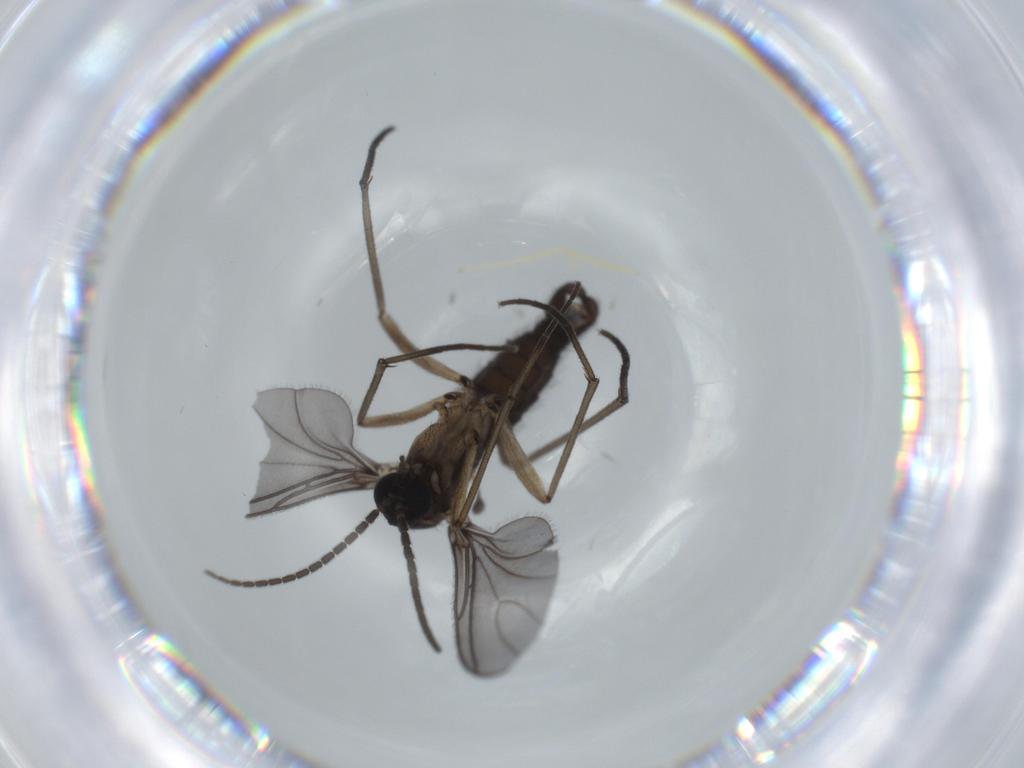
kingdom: Animalia
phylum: Arthropoda
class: Insecta
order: Diptera
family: Sciaridae
